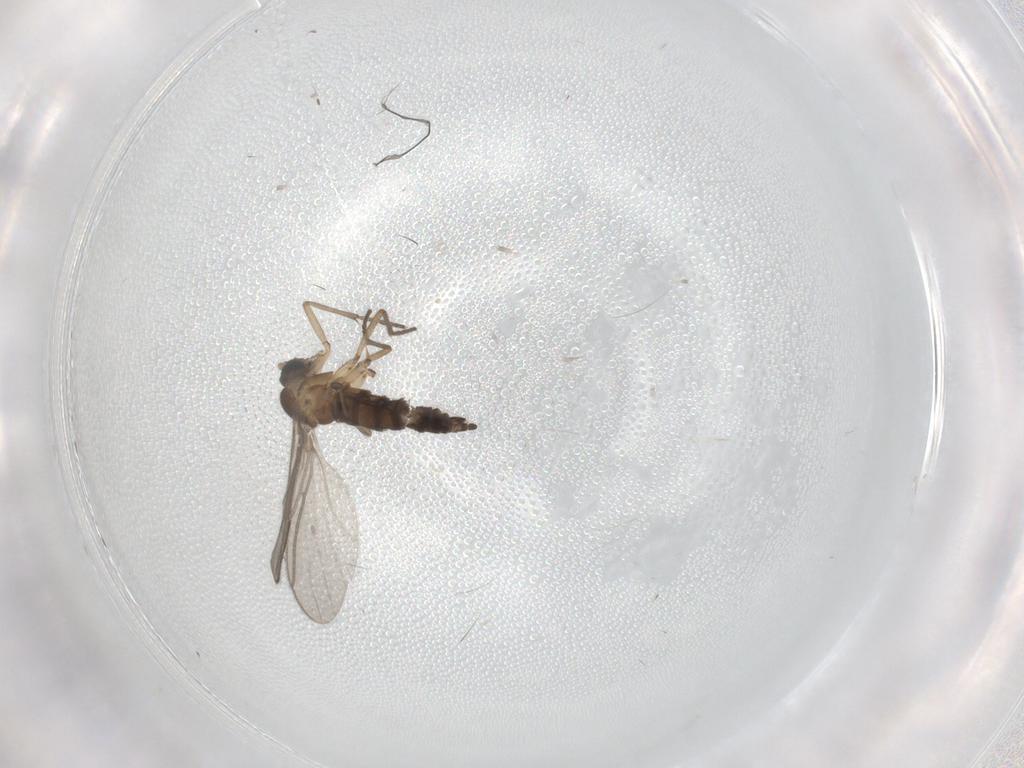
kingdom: Animalia
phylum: Arthropoda
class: Insecta
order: Diptera
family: Sciaridae
